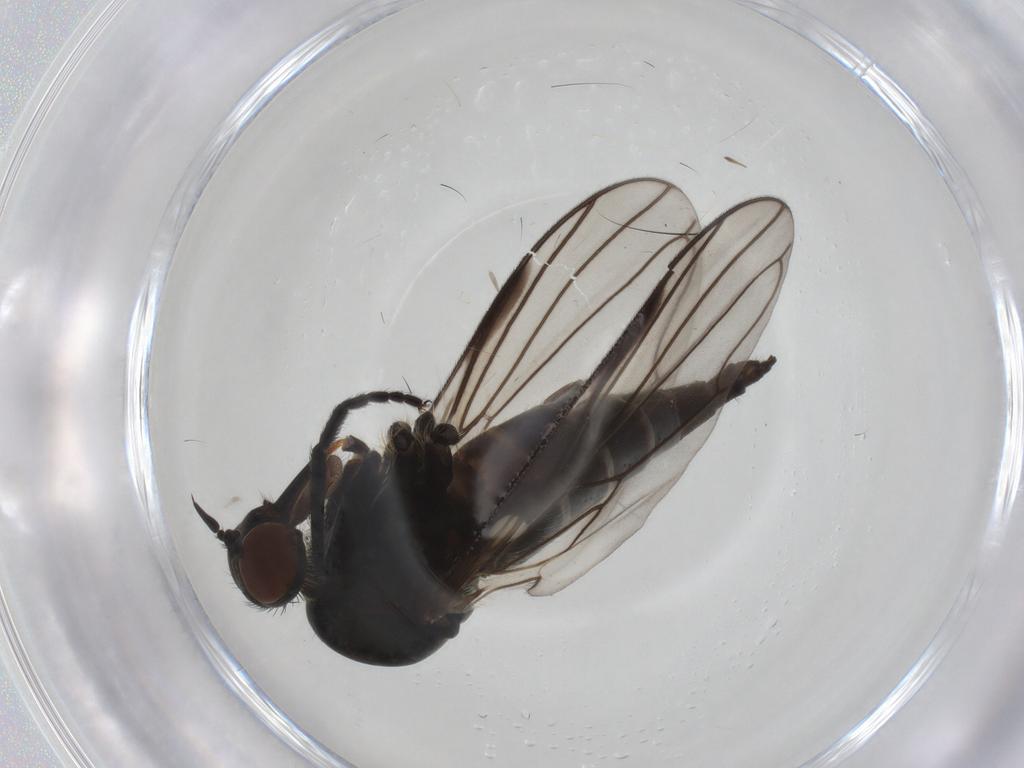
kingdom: Animalia
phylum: Arthropoda
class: Insecta
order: Diptera
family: Empididae
